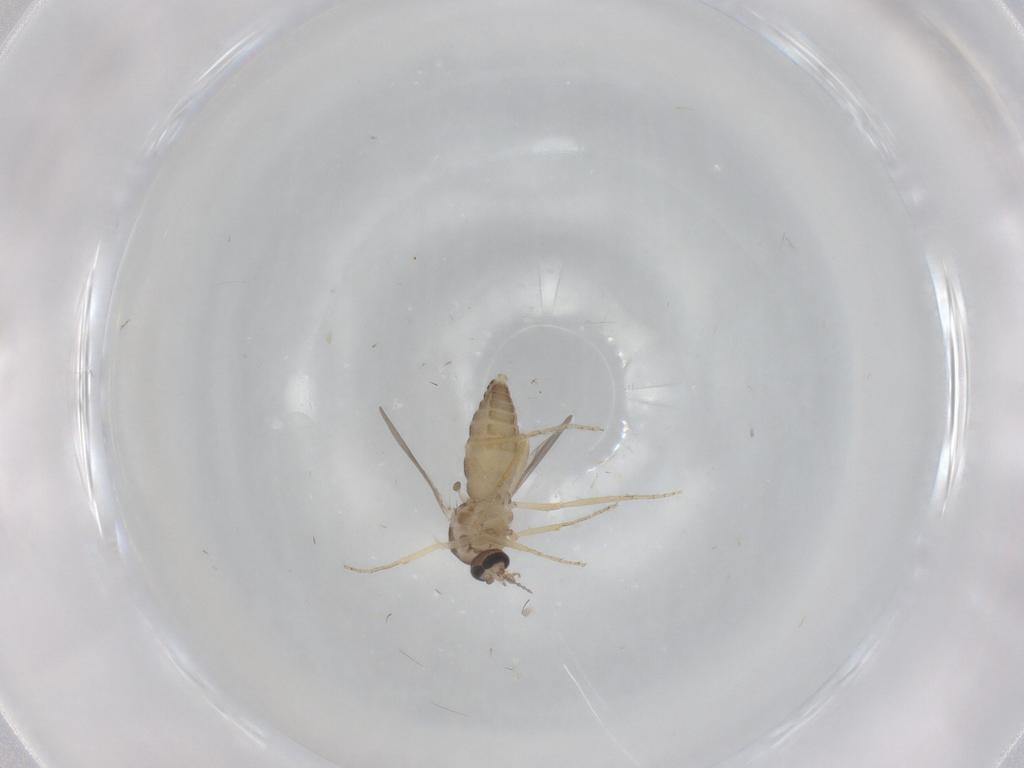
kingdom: Animalia
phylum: Arthropoda
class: Insecta
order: Diptera
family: Ceratopogonidae
